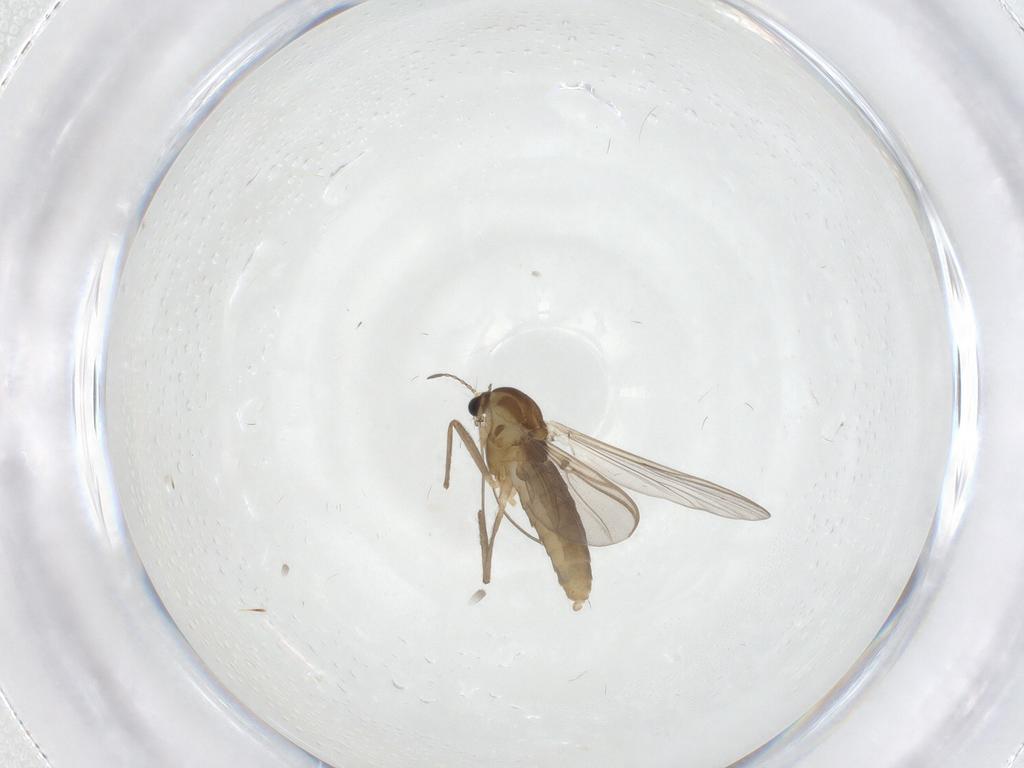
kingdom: Animalia
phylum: Arthropoda
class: Insecta
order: Diptera
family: Chironomidae
